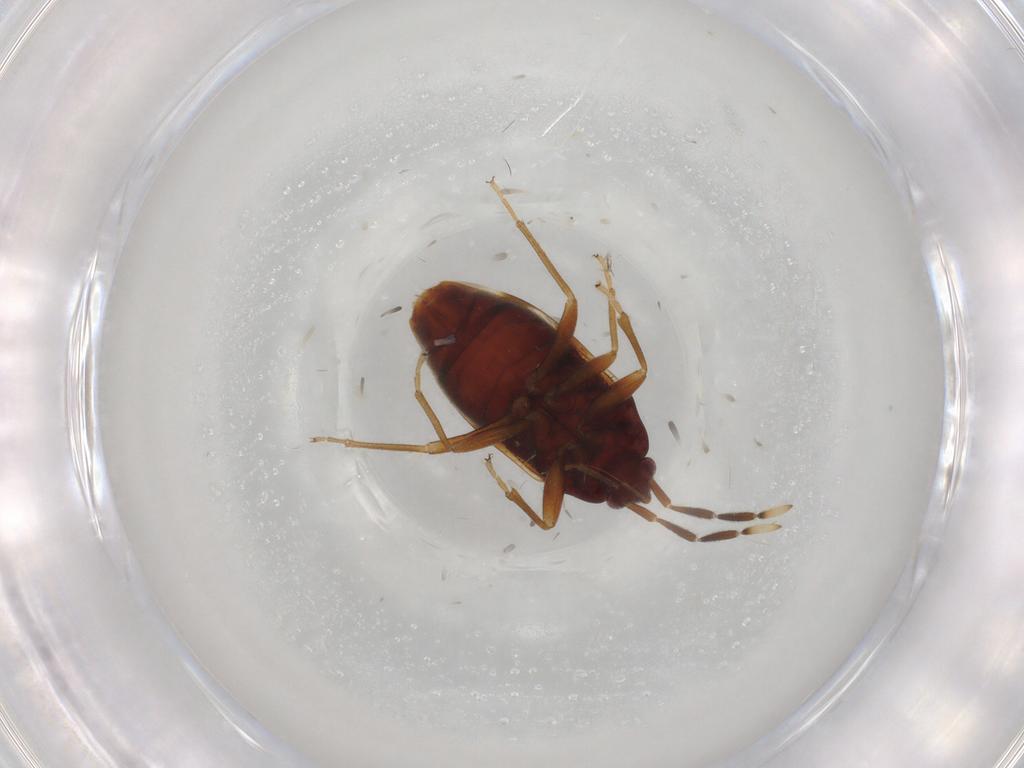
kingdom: Animalia
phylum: Arthropoda
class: Insecta
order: Hemiptera
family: Rhyparochromidae
